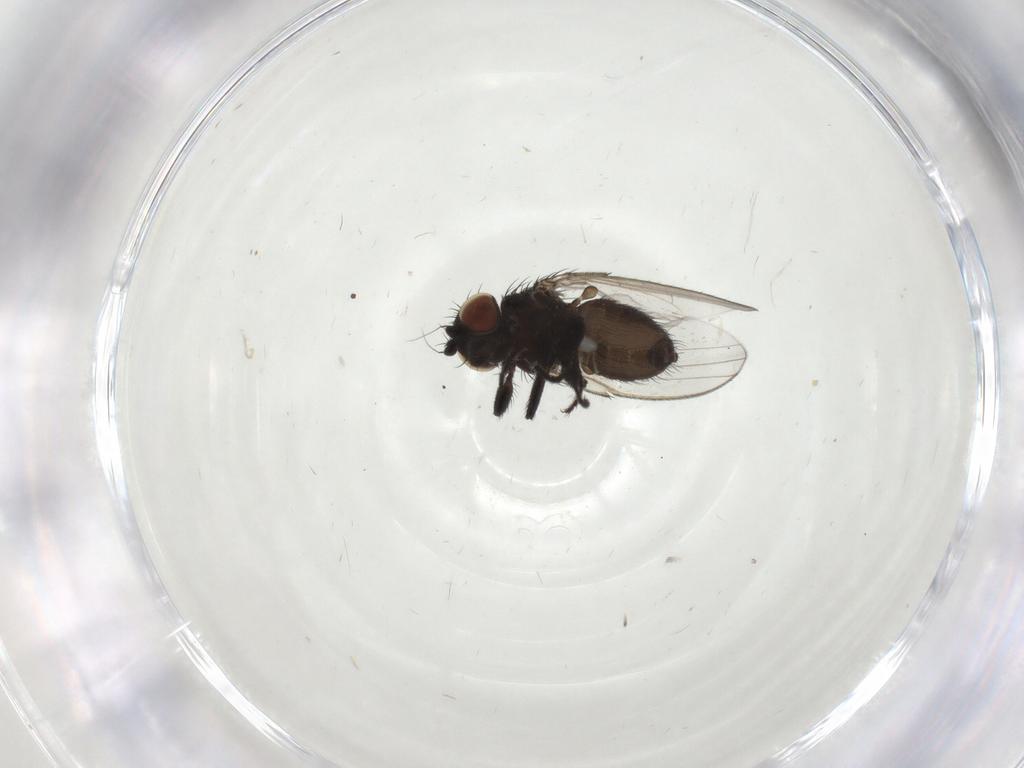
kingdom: Animalia
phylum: Arthropoda
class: Insecta
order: Diptera
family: Milichiidae
